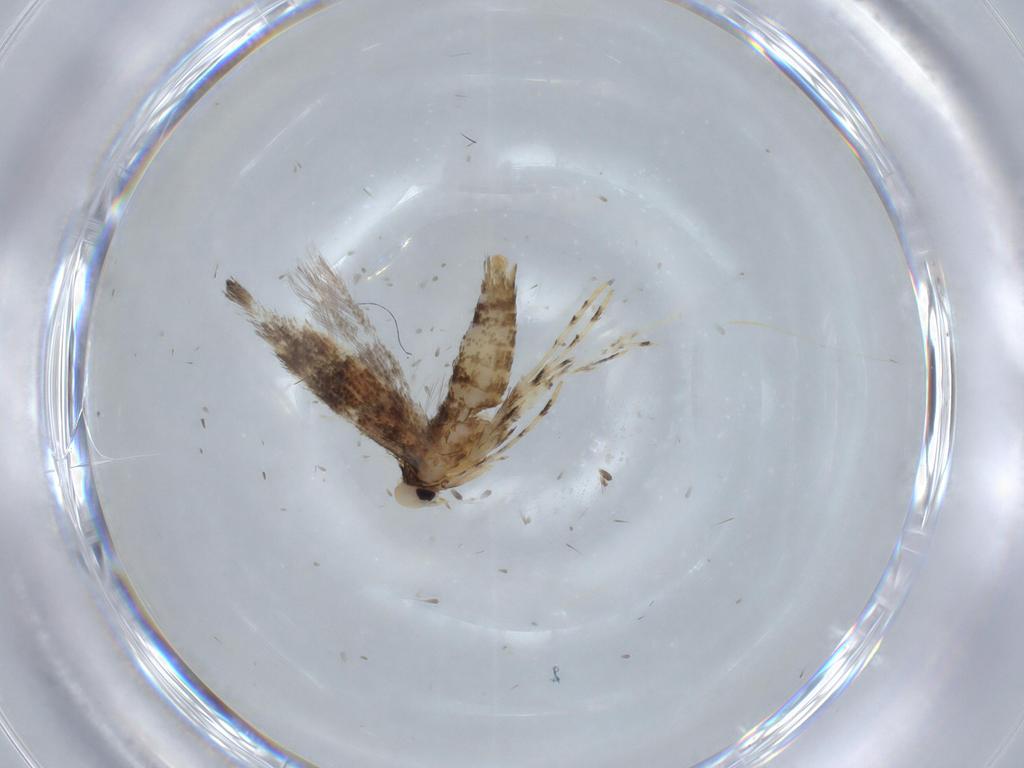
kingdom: Animalia
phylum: Arthropoda
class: Insecta
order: Lepidoptera
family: Gracillariidae
